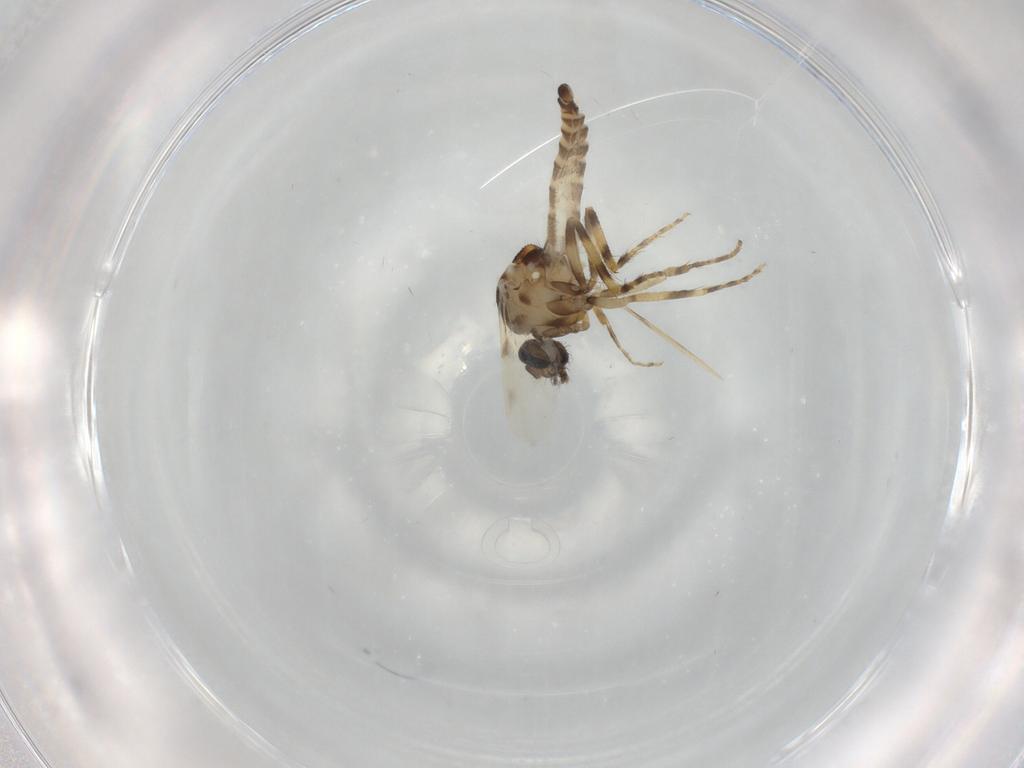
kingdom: Animalia
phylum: Arthropoda
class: Insecta
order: Diptera
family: Ceratopogonidae
